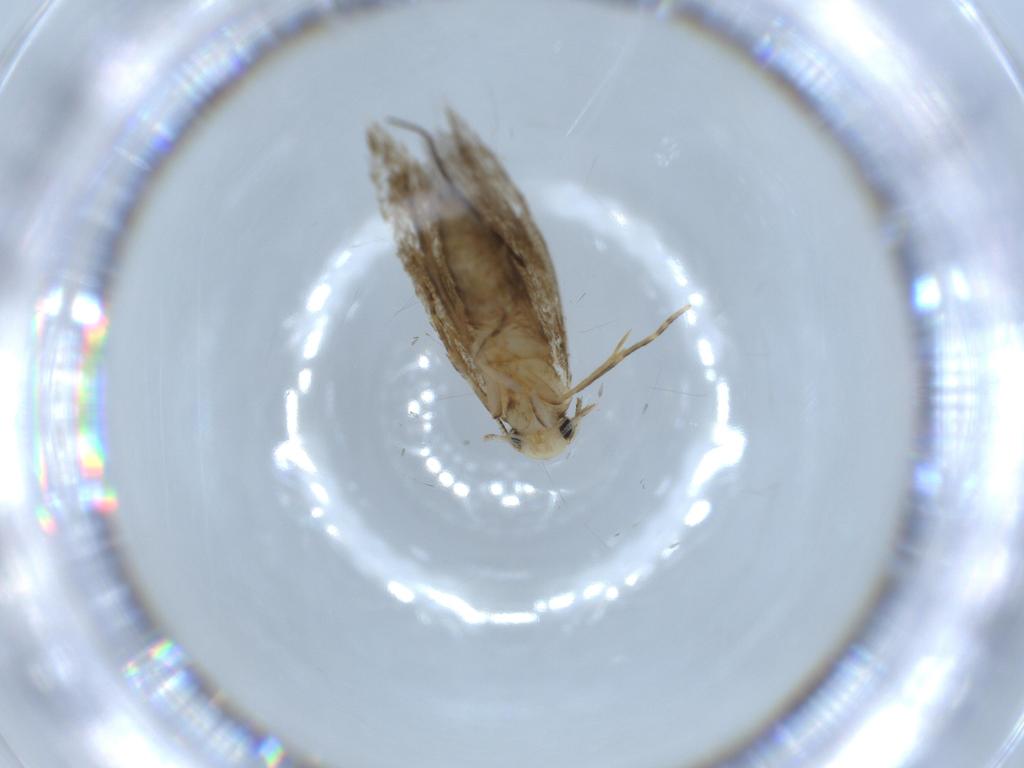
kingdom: Animalia
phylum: Arthropoda
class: Insecta
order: Lepidoptera
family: Tineidae
